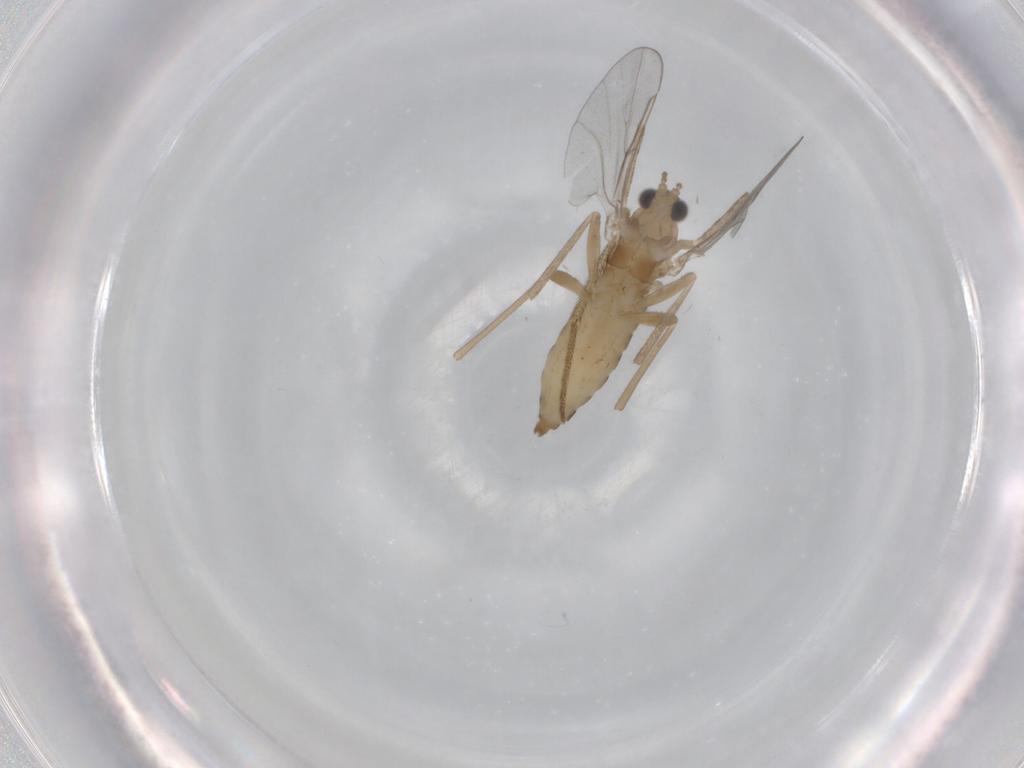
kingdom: Animalia
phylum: Arthropoda
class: Insecta
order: Diptera
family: Cecidomyiidae
